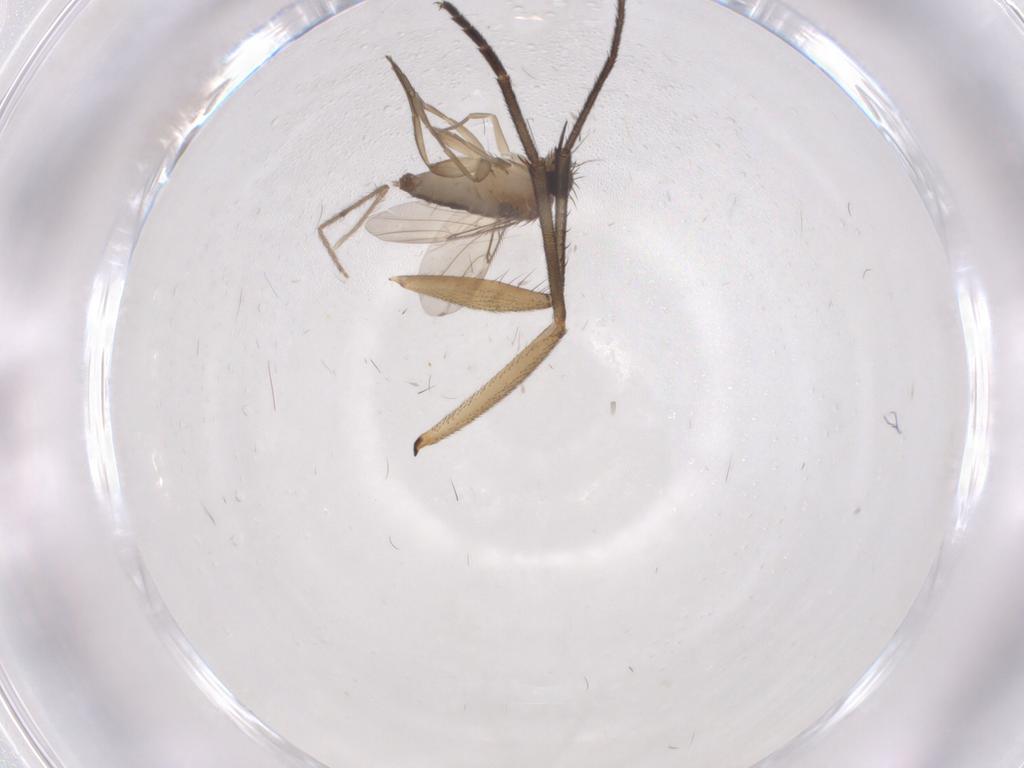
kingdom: Animalia
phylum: Arthropoda
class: Insecta
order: Diptera
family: Phoridae
